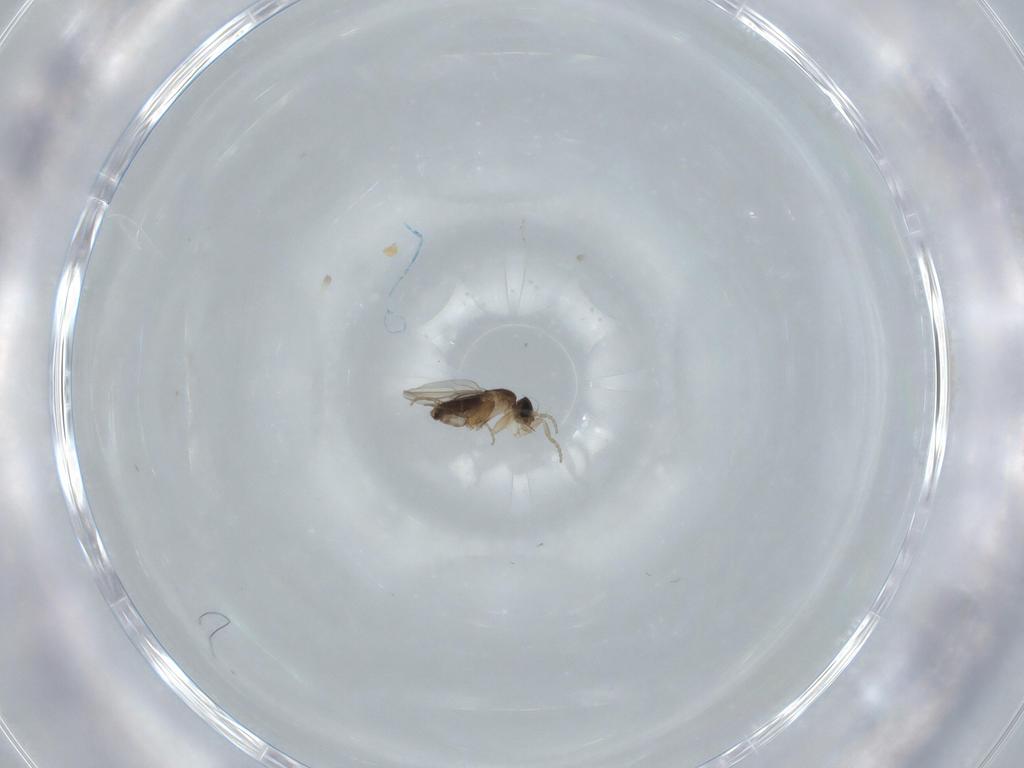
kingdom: Animalia
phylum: Arthropoda
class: Insecta
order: Diptera
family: Phoridae
